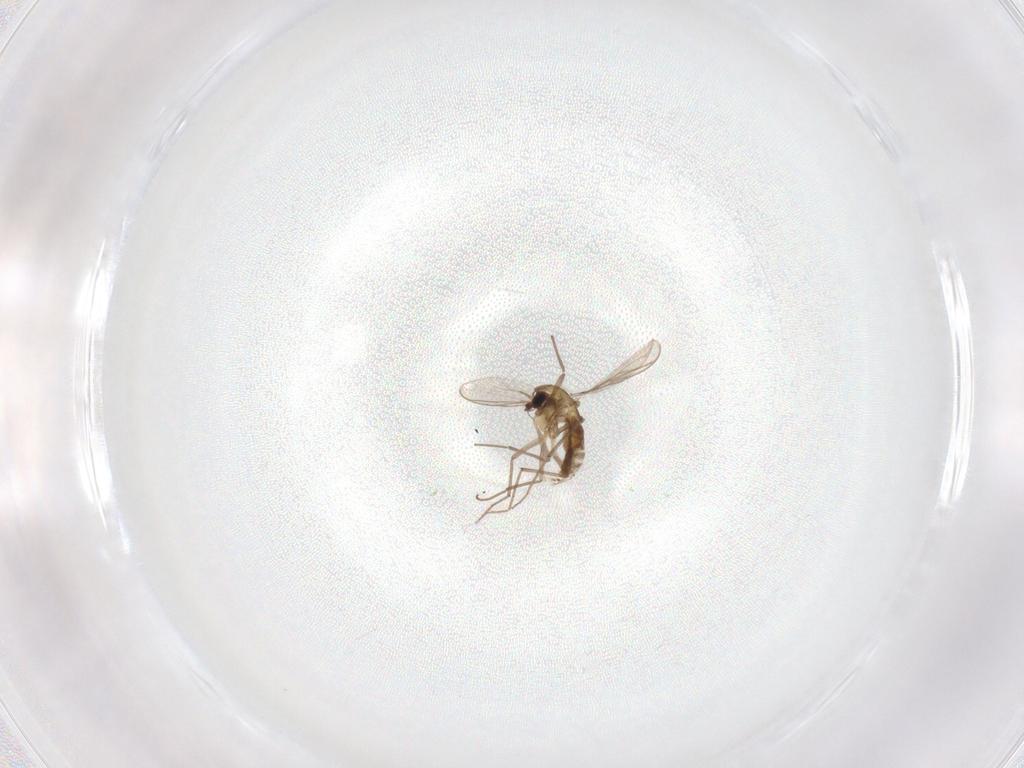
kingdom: Animalia
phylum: Arthropoda
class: Insecta
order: Diptera
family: Chironomidae
